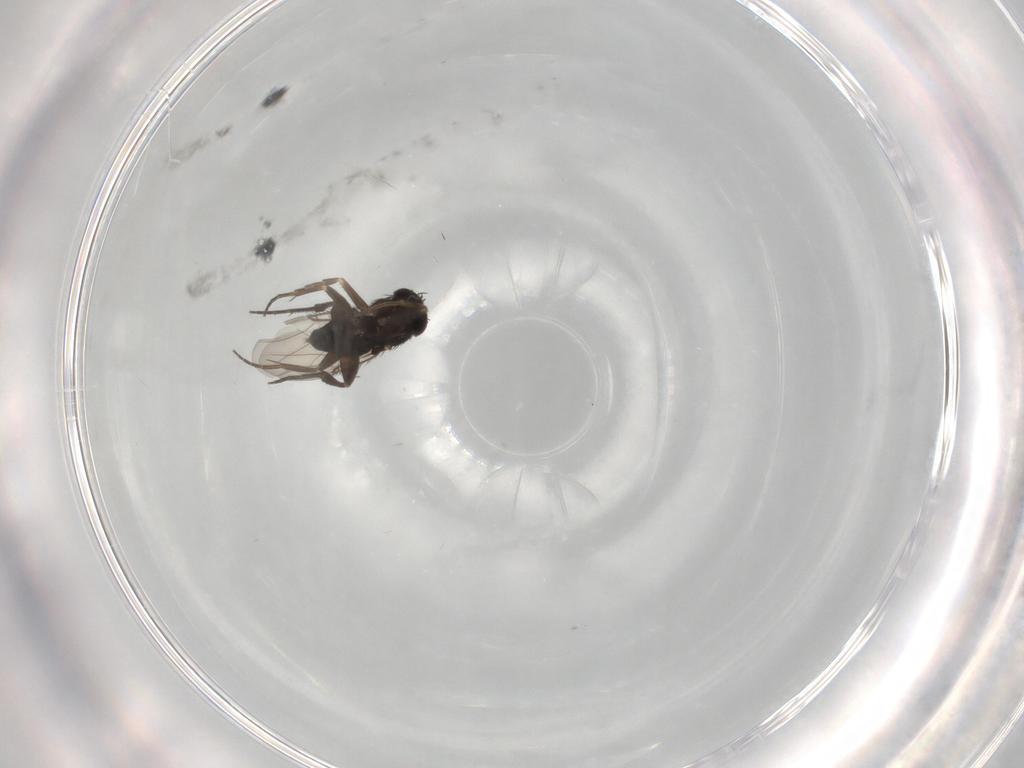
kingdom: Animalia
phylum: Arthropoda
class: Insecta
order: Diptera
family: Phoridae
